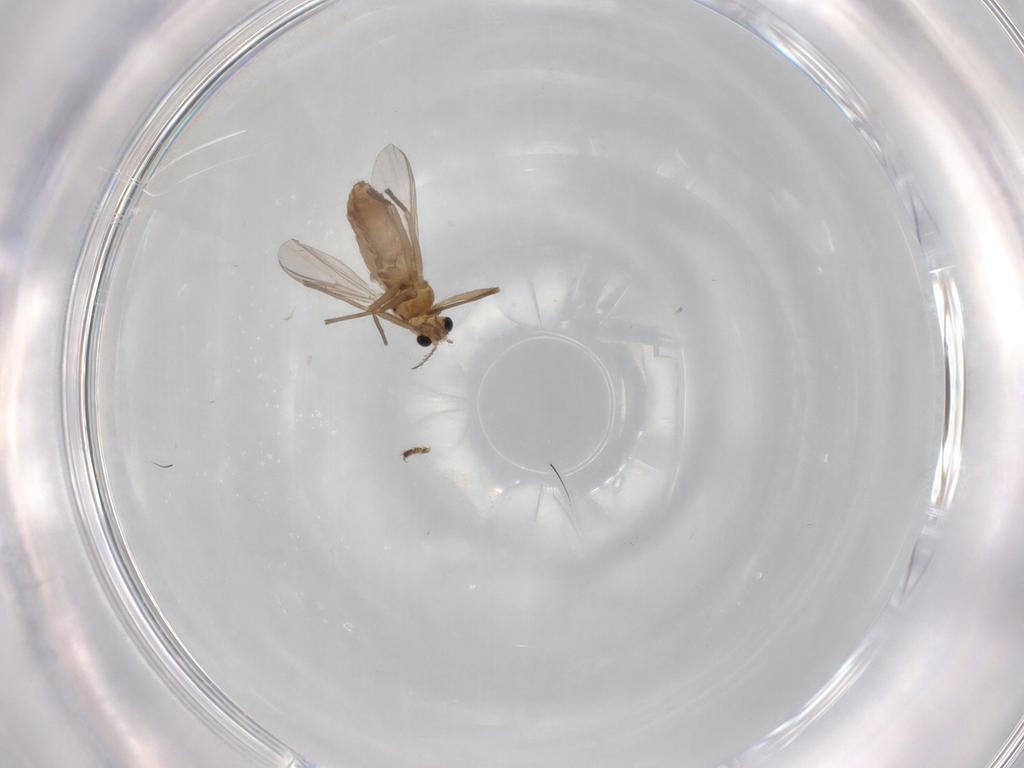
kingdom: Animalia
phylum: Arthropoda
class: Insecta
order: Diptera
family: Chironomidae
